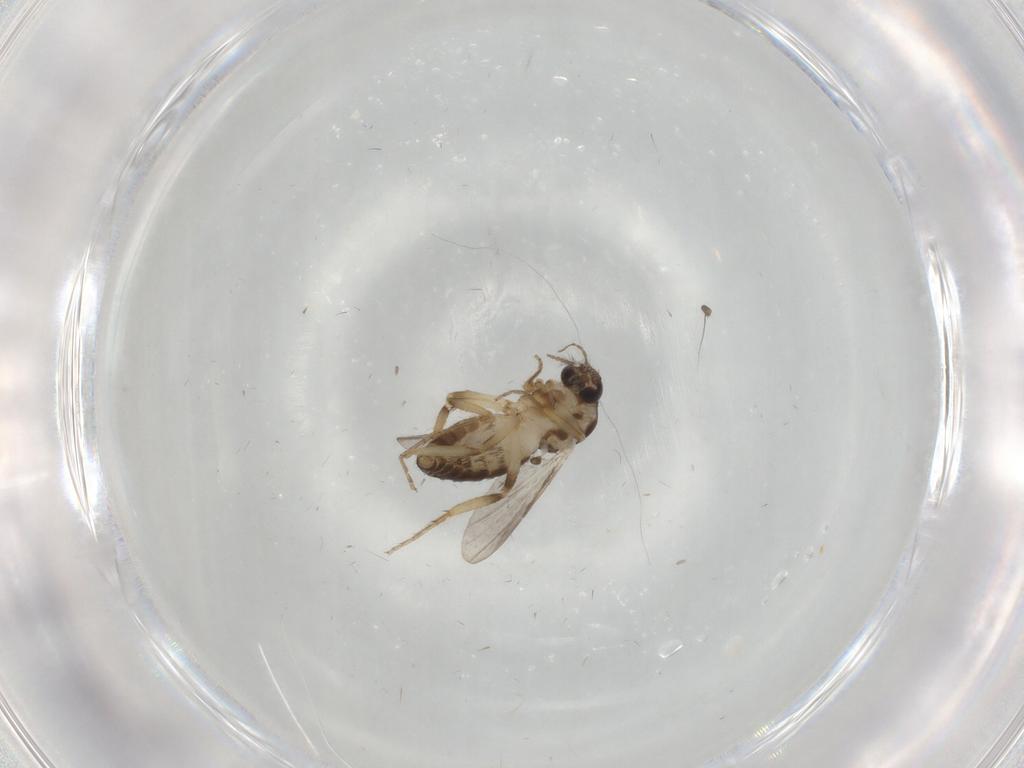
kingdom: Animalia
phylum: Arthropoda
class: Insecta
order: Diptera
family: Ceratopogonidae
